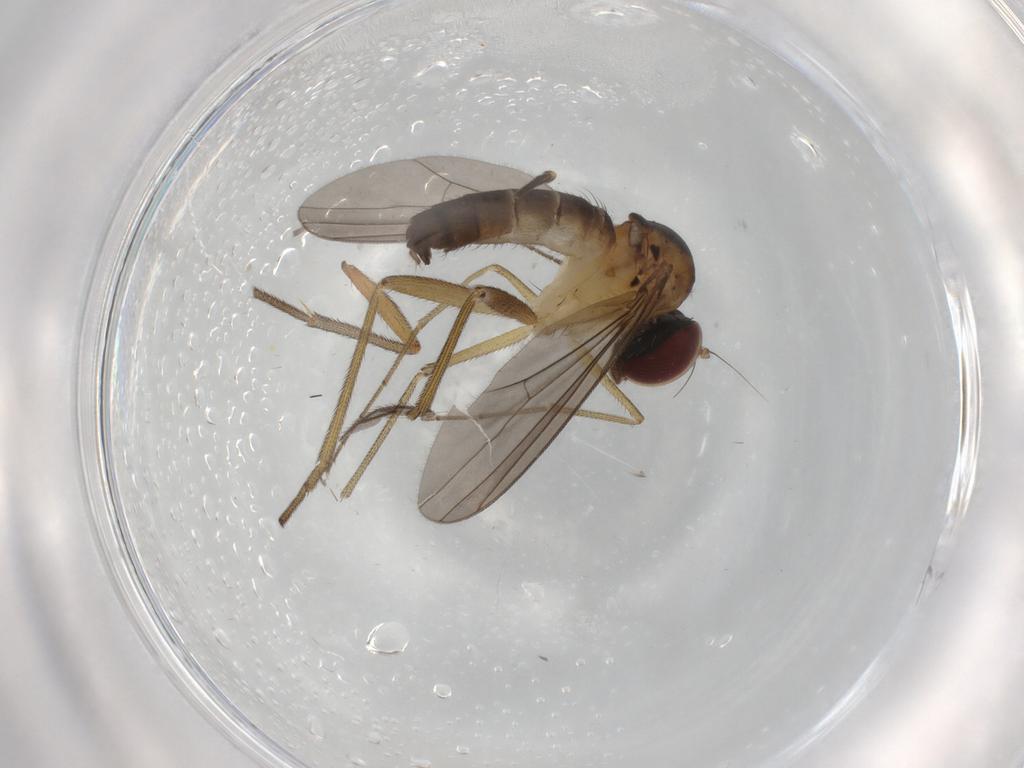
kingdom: Animalia
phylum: Arthropoda
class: Insecta
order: Diptera
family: Dolichopodidae
